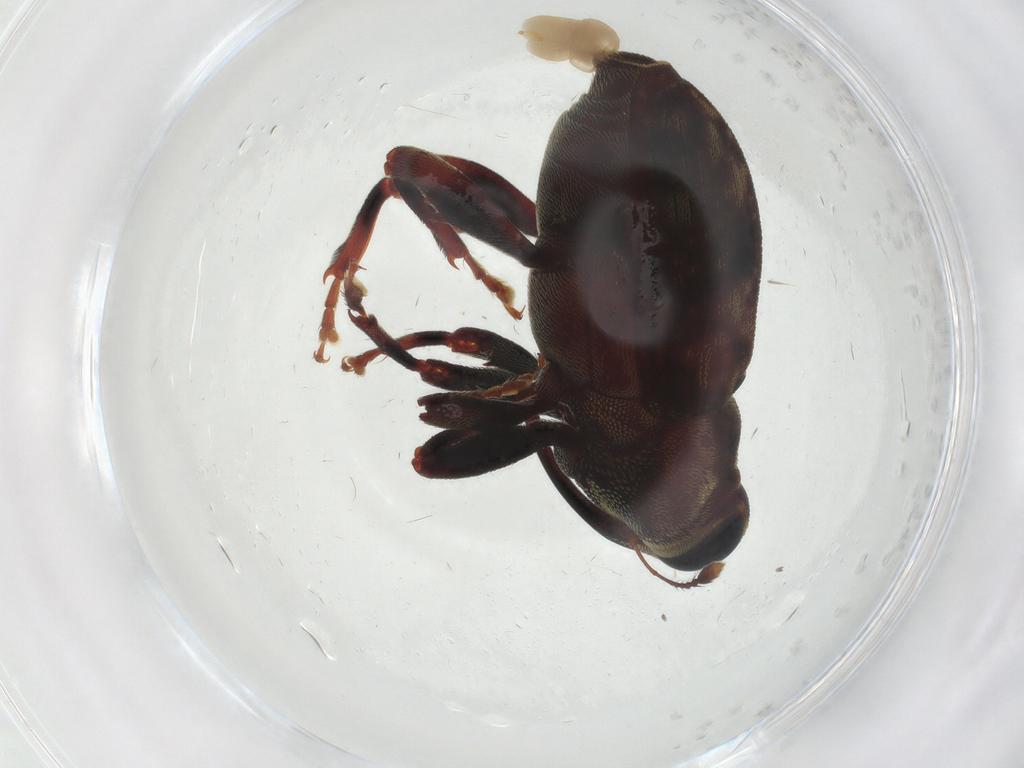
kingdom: Animalia
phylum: Arthropoda
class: Insecta
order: Coleoptera
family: Curculionidae
